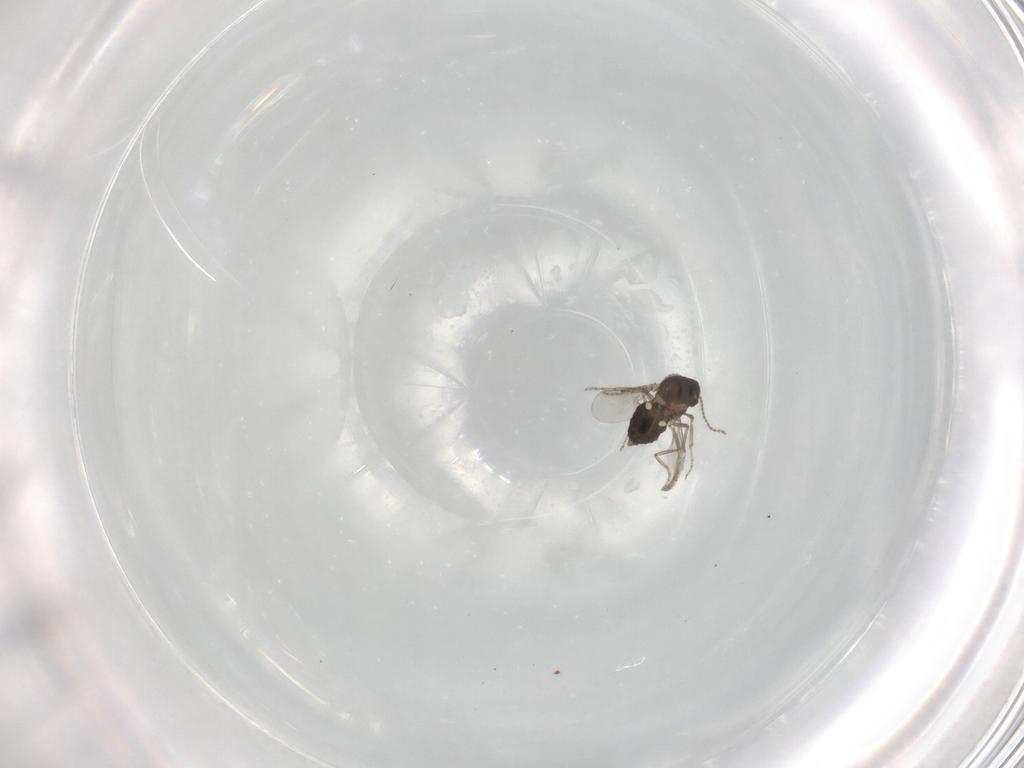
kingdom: Animalia
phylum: Arthropoda
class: Insecta
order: Diptera
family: Ceratopogonidae
